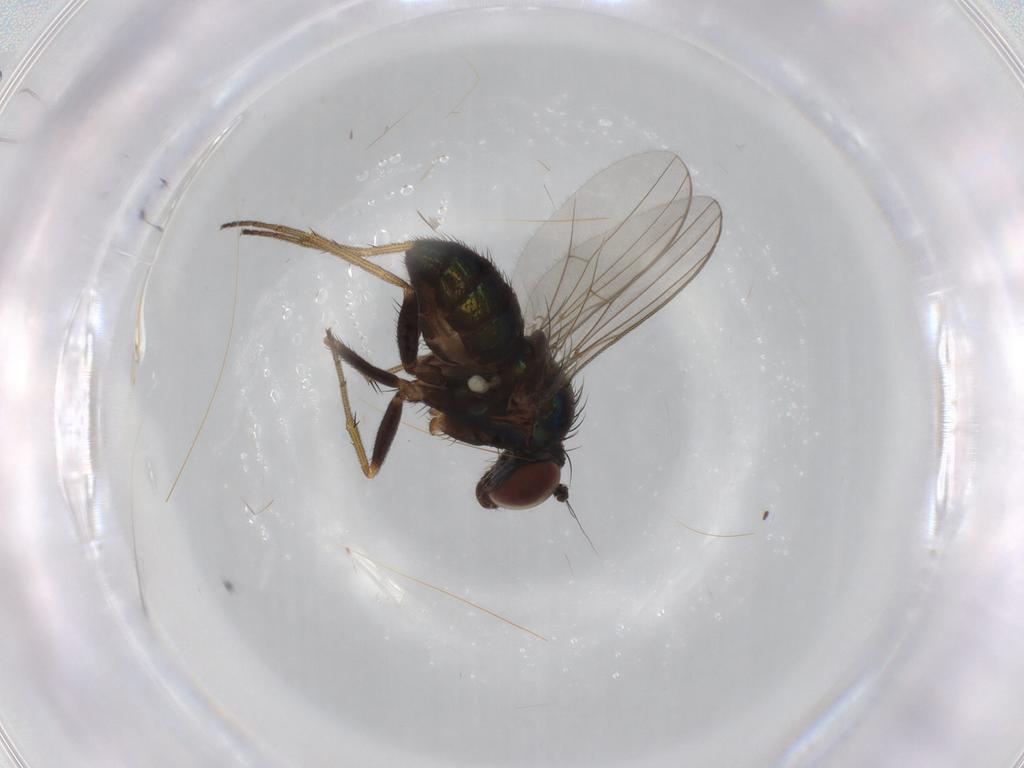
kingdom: Animalia
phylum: Arthropoda
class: Insecta
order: Diptera
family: Dolichopodidae
